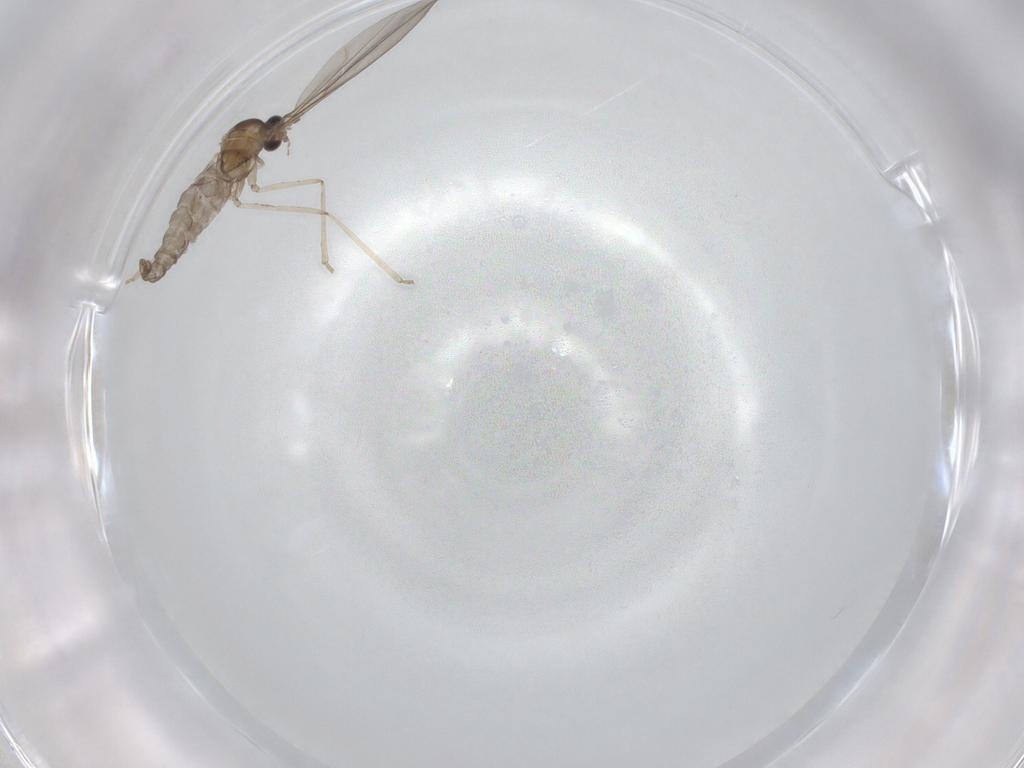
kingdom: Animalia
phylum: Arthropoda
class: Insecta
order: Diptera
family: Cecidomyiidae
